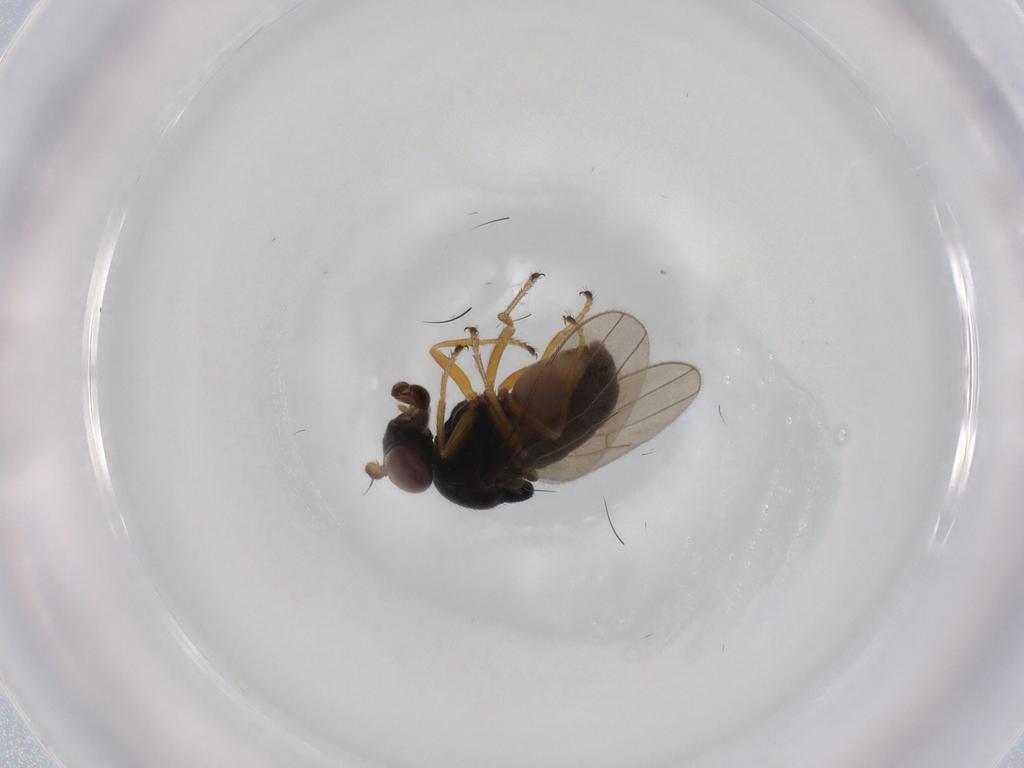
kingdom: Animalia
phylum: Arthropoda
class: Insecta
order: Diptera
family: Ephydridae
